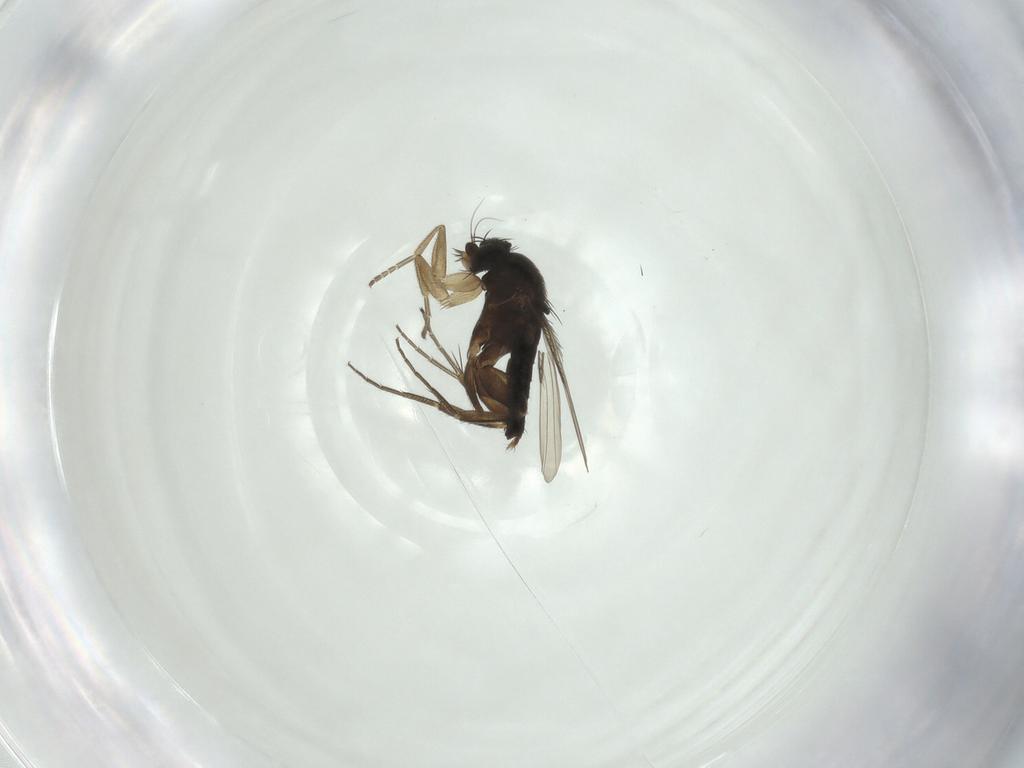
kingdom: Animalia
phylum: Arthropoda
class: Insecta
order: Diptera
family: Phoridae
